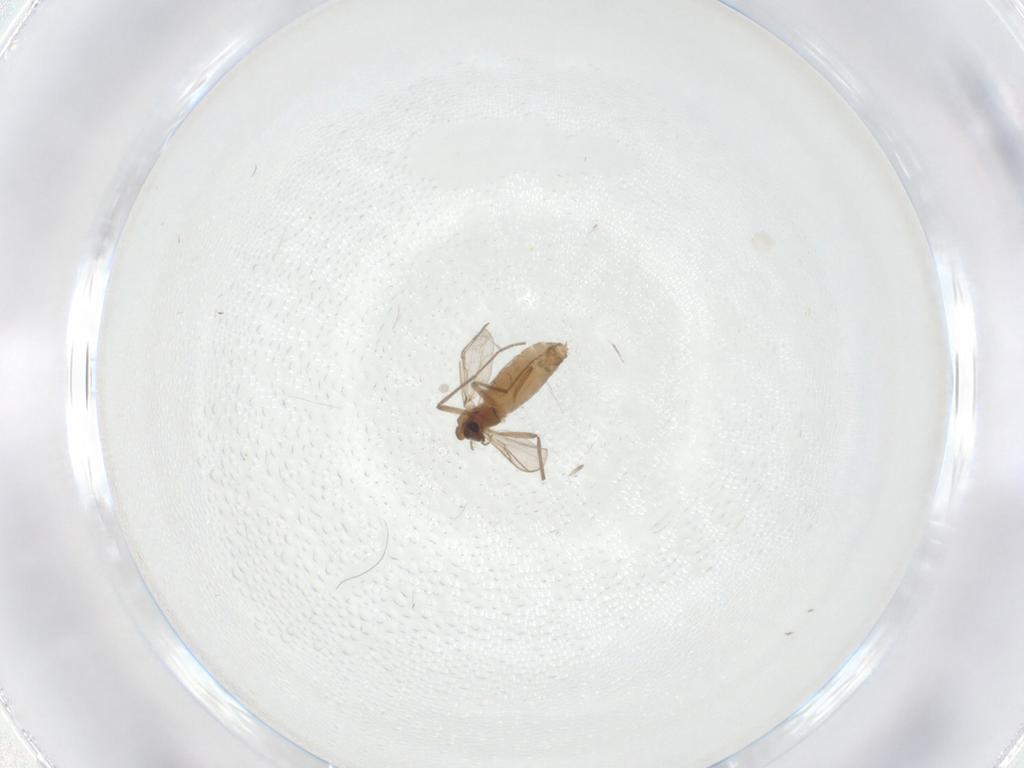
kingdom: Animalia
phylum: Arthropoda
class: Insecta
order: Diptera
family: Chironomidae
